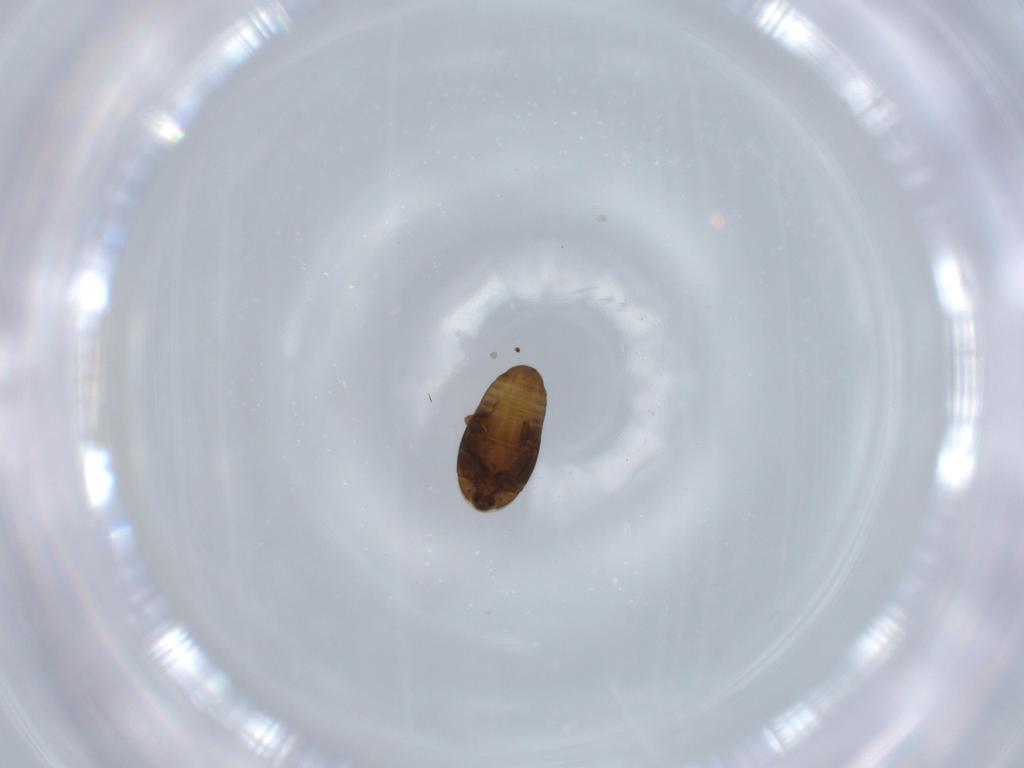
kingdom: Animalia
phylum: Arthropoda
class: Insecta
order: Coleoptera
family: Corylophidae
